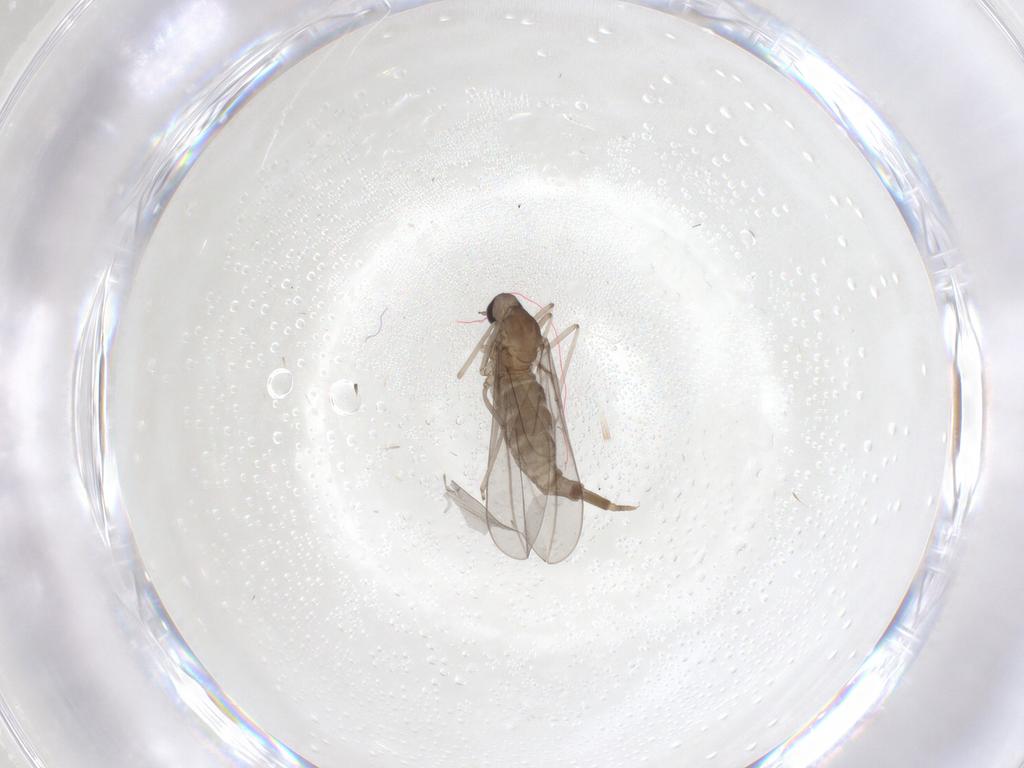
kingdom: Animalia
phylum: Arthropoda
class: Insecta
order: Diptera
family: Cecidomyiidae
